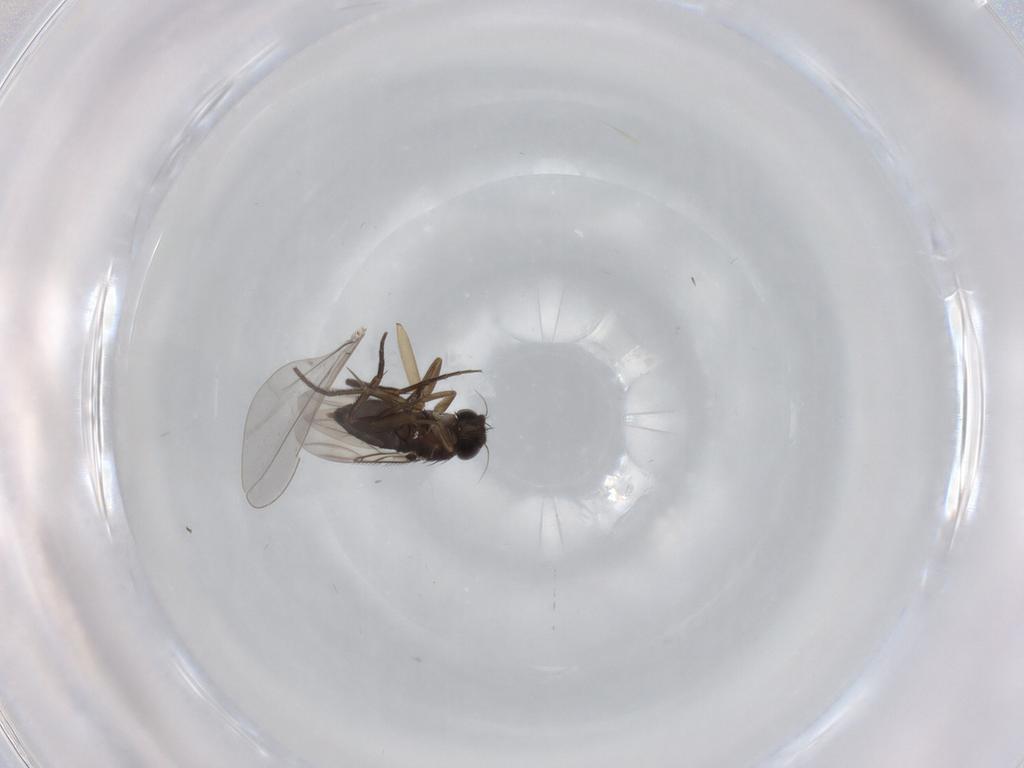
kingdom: Animalia
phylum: Arthropoda
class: Insecta
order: Diptera
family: Cecidomyiidae
